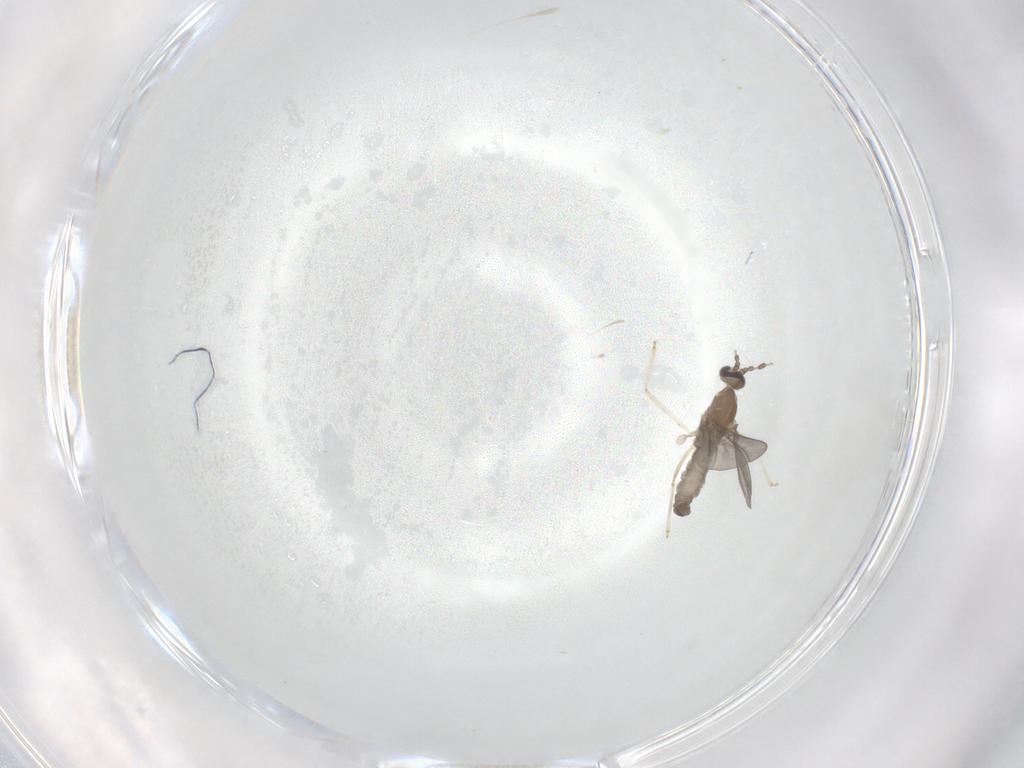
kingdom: Animalia
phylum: Arthropoda
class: Insecta
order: Diptera
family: Cecidomyiidae
